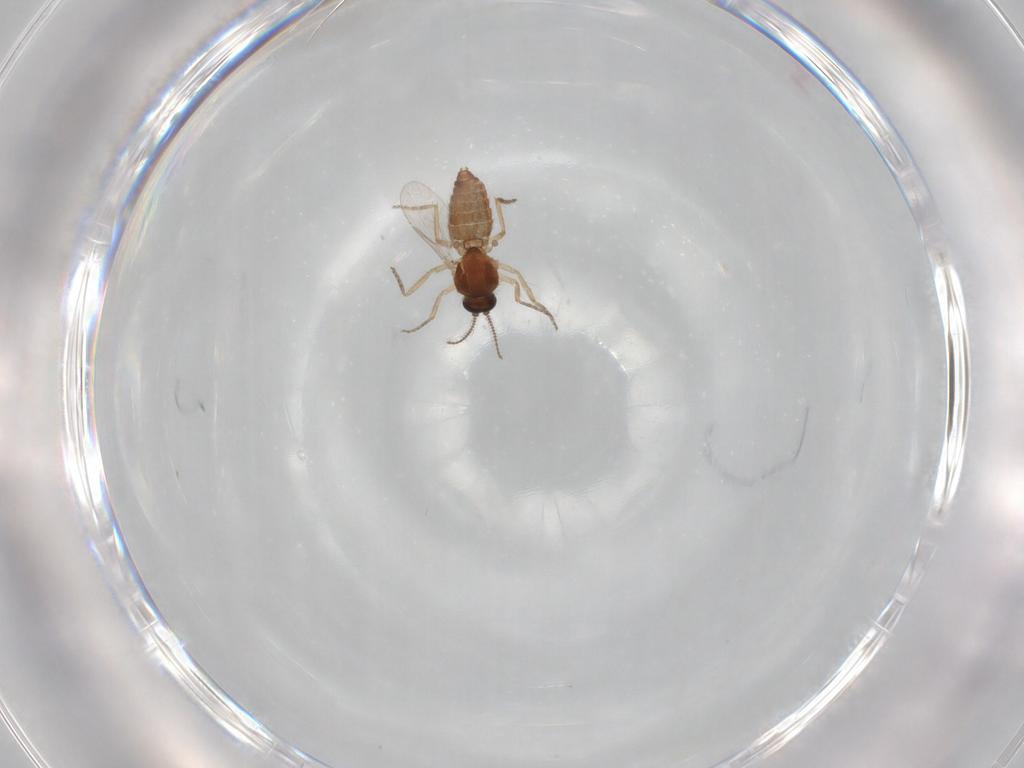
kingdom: Animalia
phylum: Arthropoda
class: Insecta
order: Diptera
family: Ceratopogonidae
